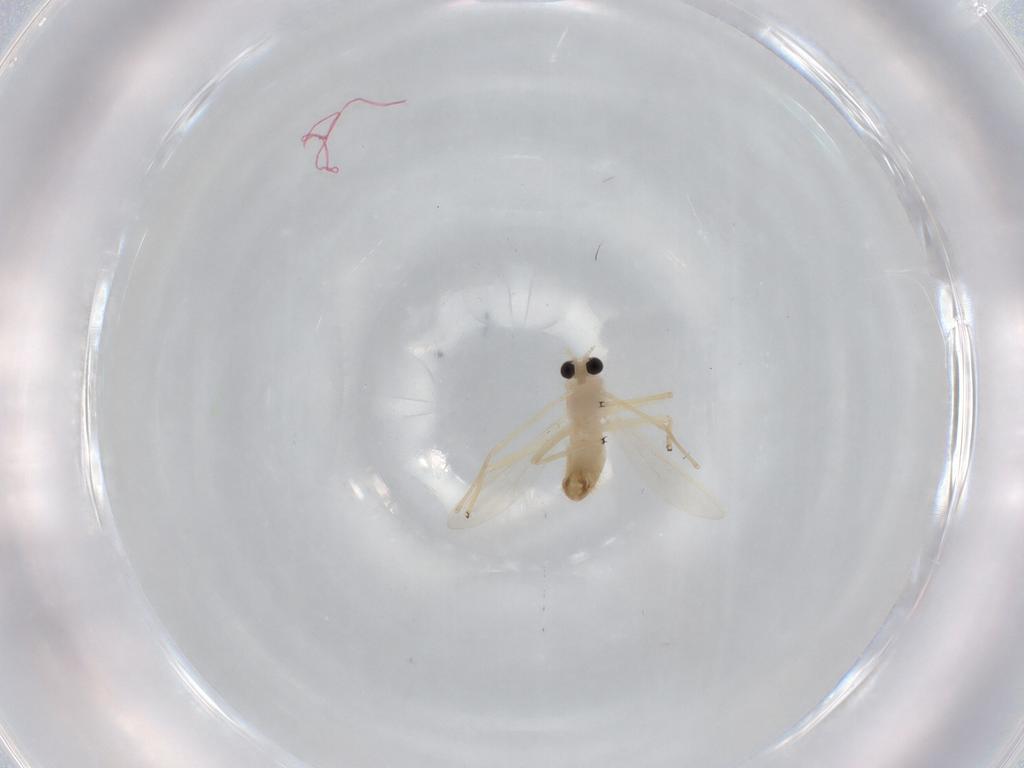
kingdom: Animalia
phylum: Arthropoda
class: Insecta
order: Diptera
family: Chironomidae
